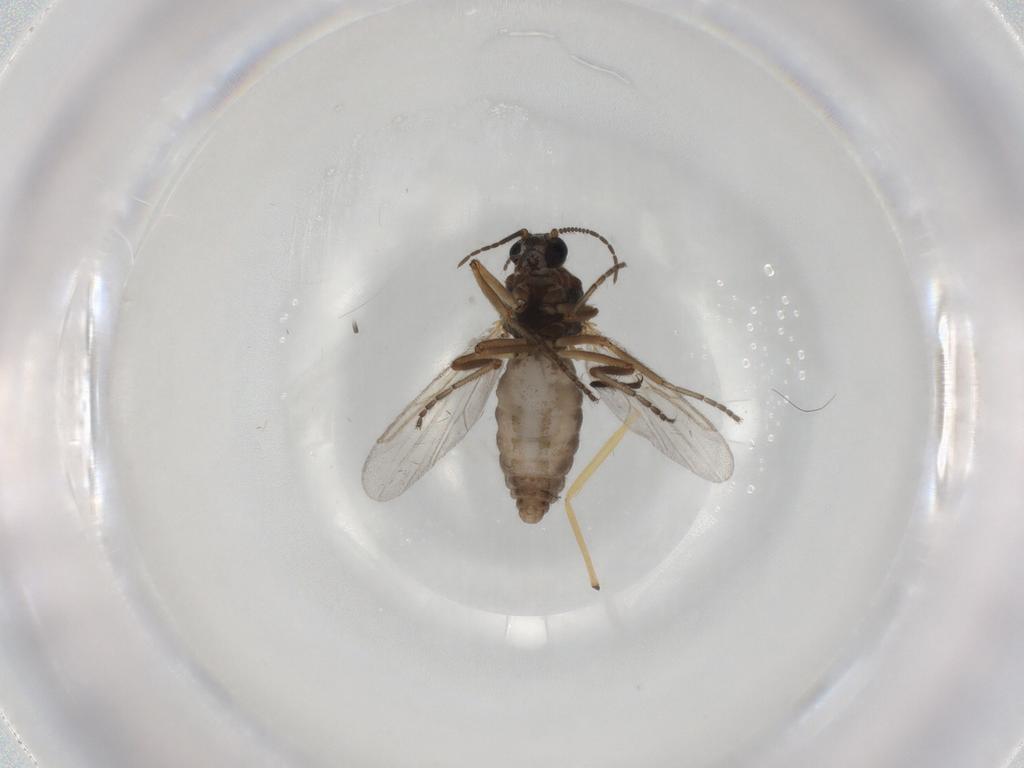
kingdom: Animalia
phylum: Arthropoda
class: Insecta
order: Diptera
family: Ceratopogonidae
